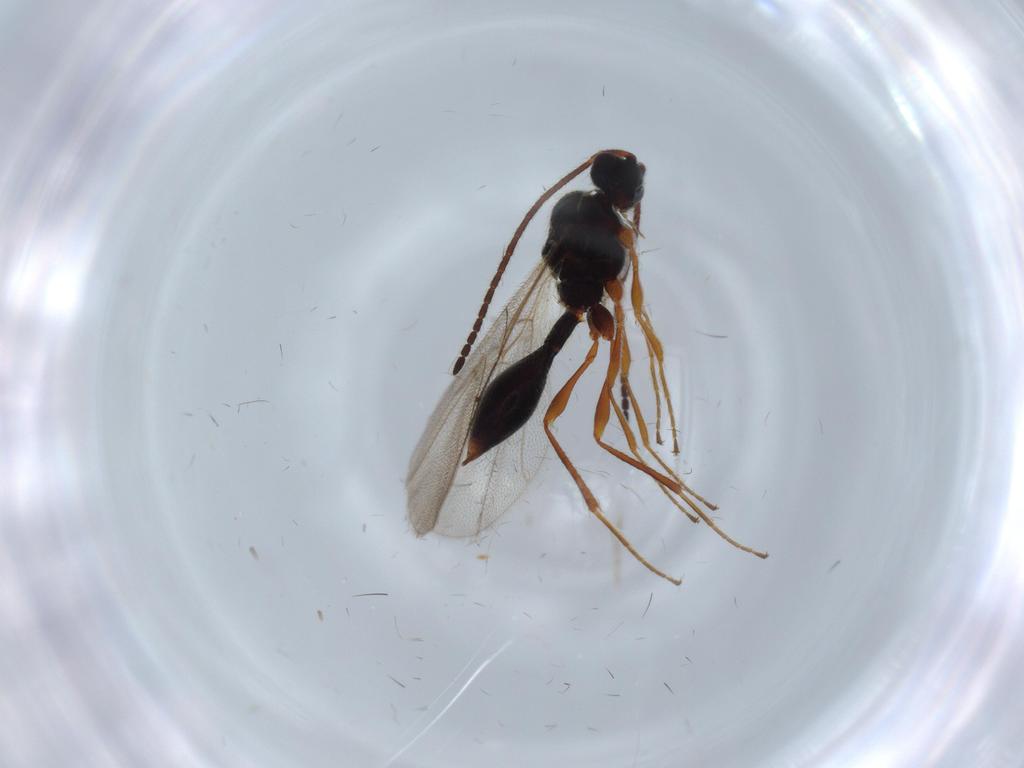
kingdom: Animalia
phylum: Arthropoda
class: Insecta
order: Hymenoptera
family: Diapriidae
